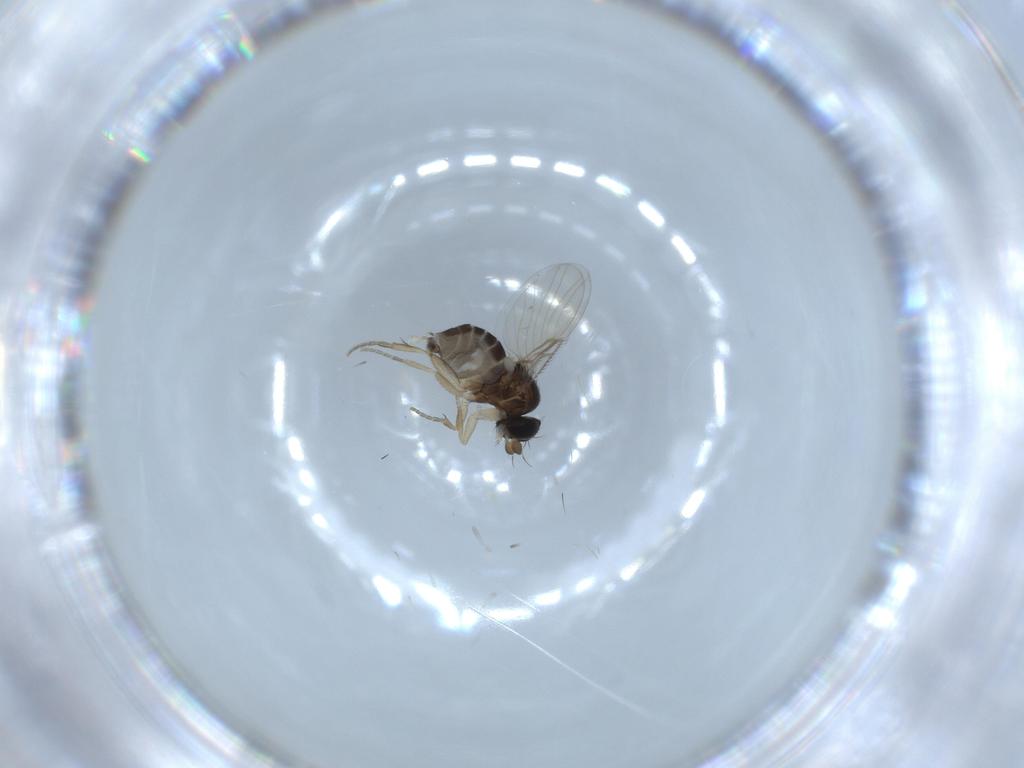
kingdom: Animalia
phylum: Arthropoda
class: Insecta
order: Diptera
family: Phoridae
